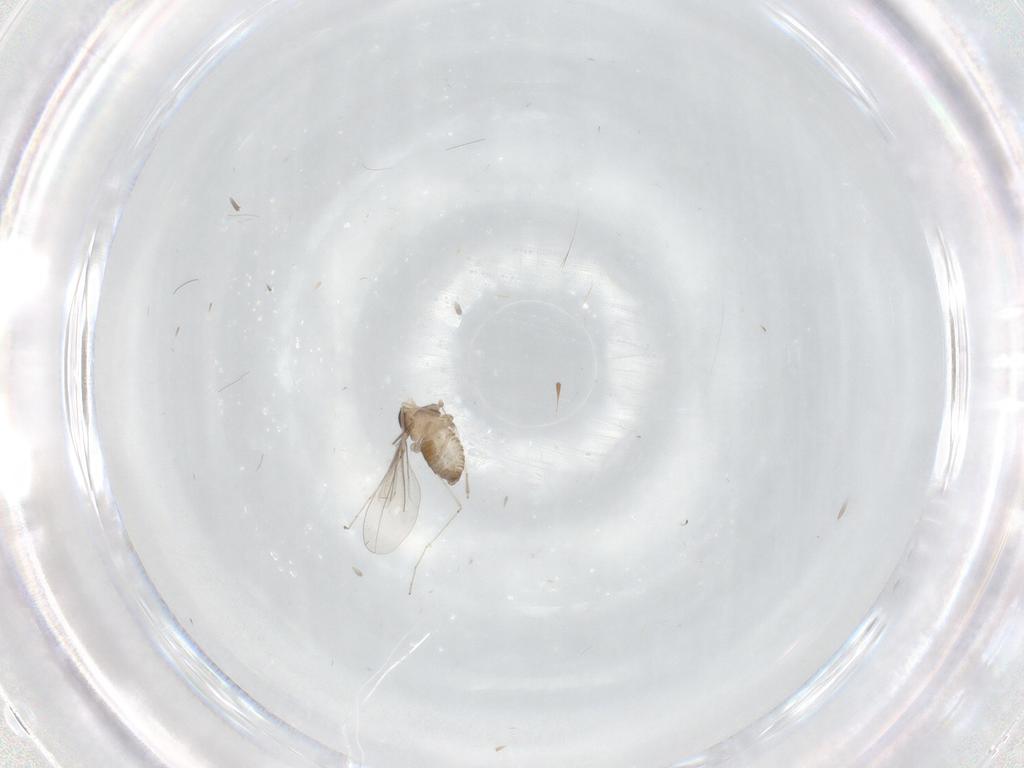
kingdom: Animalia
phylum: Arthropoda
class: Insecta
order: Diptera
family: Cecidomyiidae
